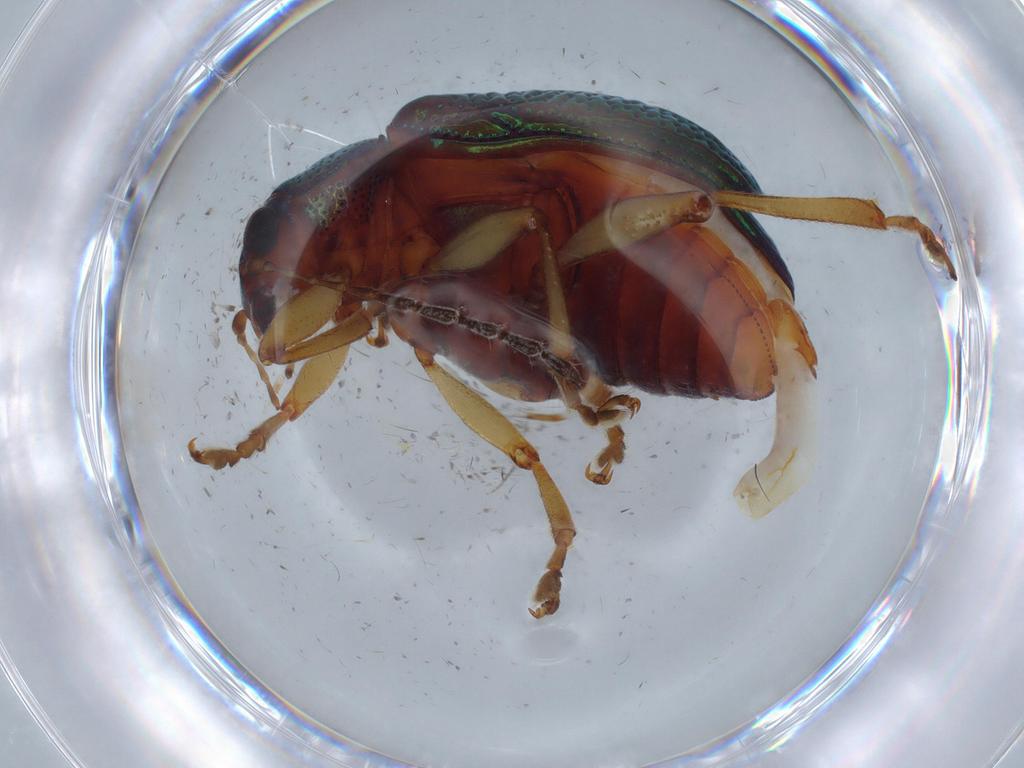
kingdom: Animalia
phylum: Arthropoda
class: Insecta
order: Coleoptera
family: Chrysomelidae
